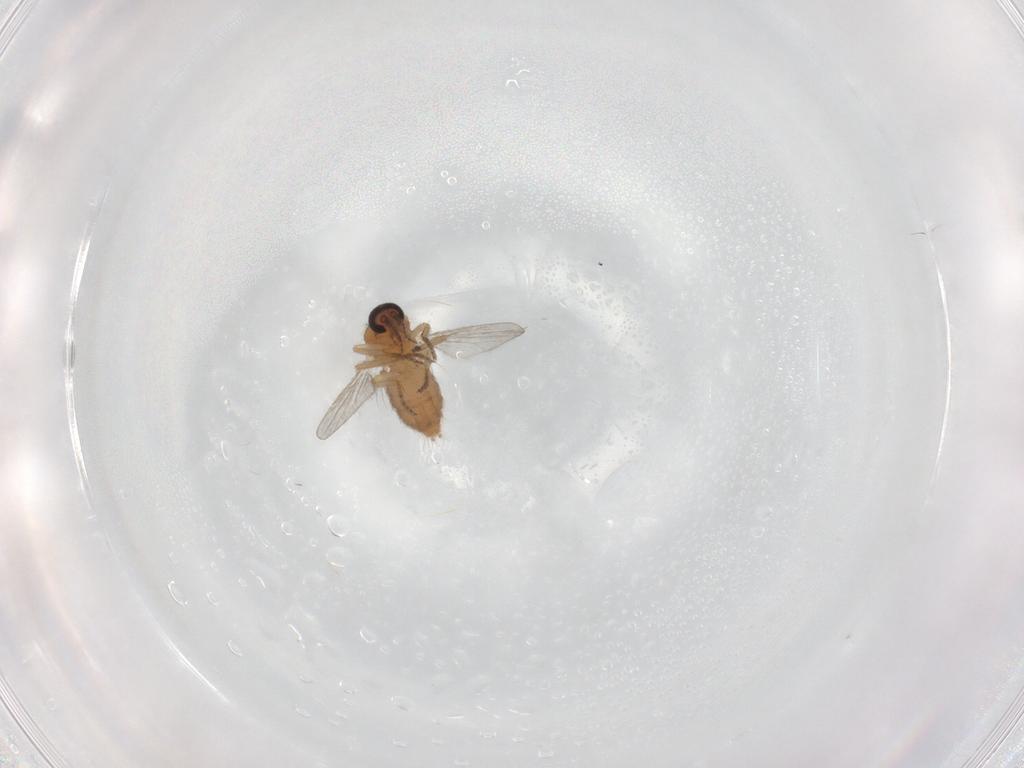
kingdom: Animalia
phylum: Arthropoda
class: Insecta
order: Diptera
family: Ceratopogonidae
